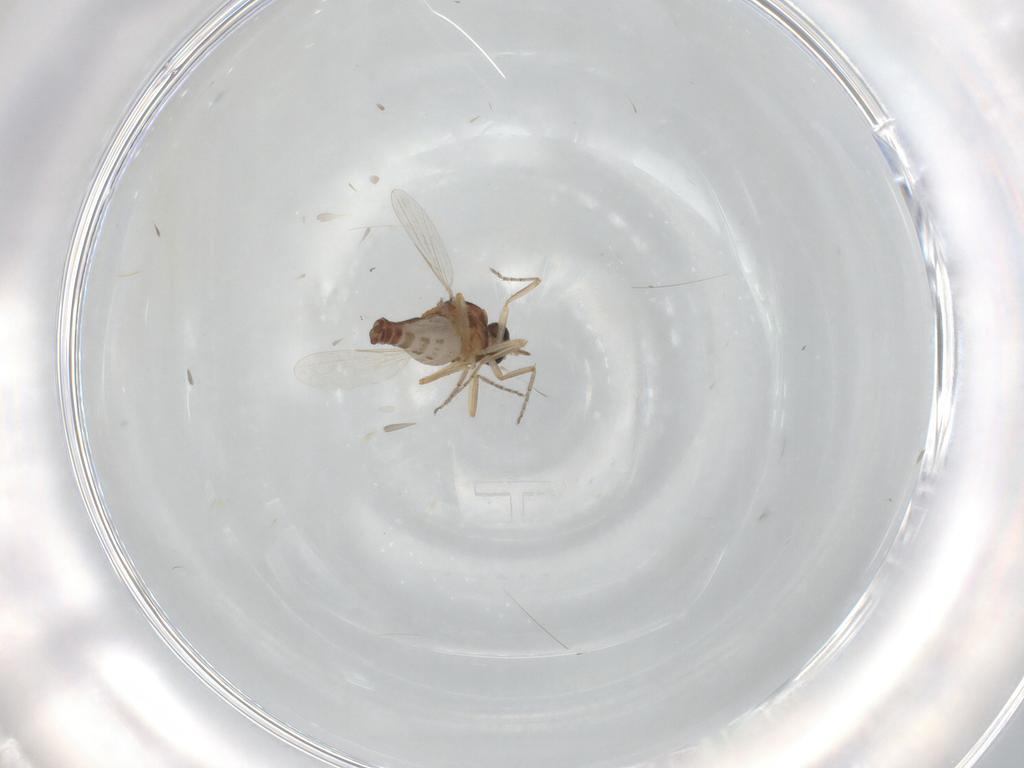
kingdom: Animalia
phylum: Arthropoda
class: Insecta
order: Diptera
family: Ceratopogonidae
